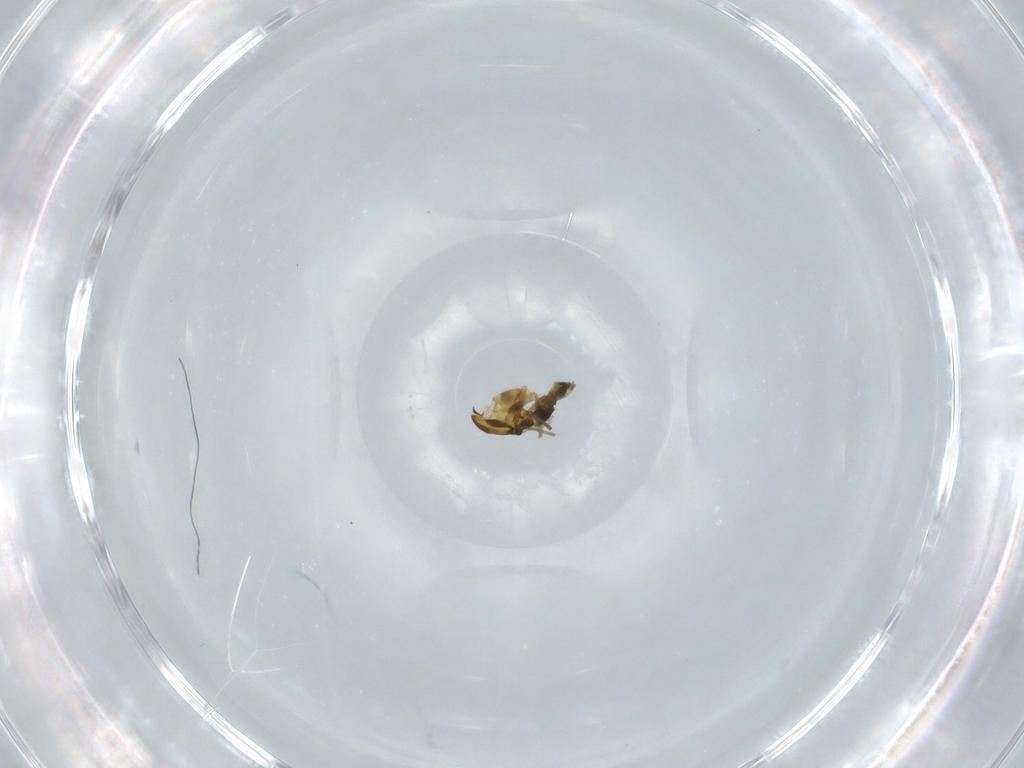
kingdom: Animalia
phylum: Arthropoda
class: Insecta
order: Diptera
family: Chironomidae
